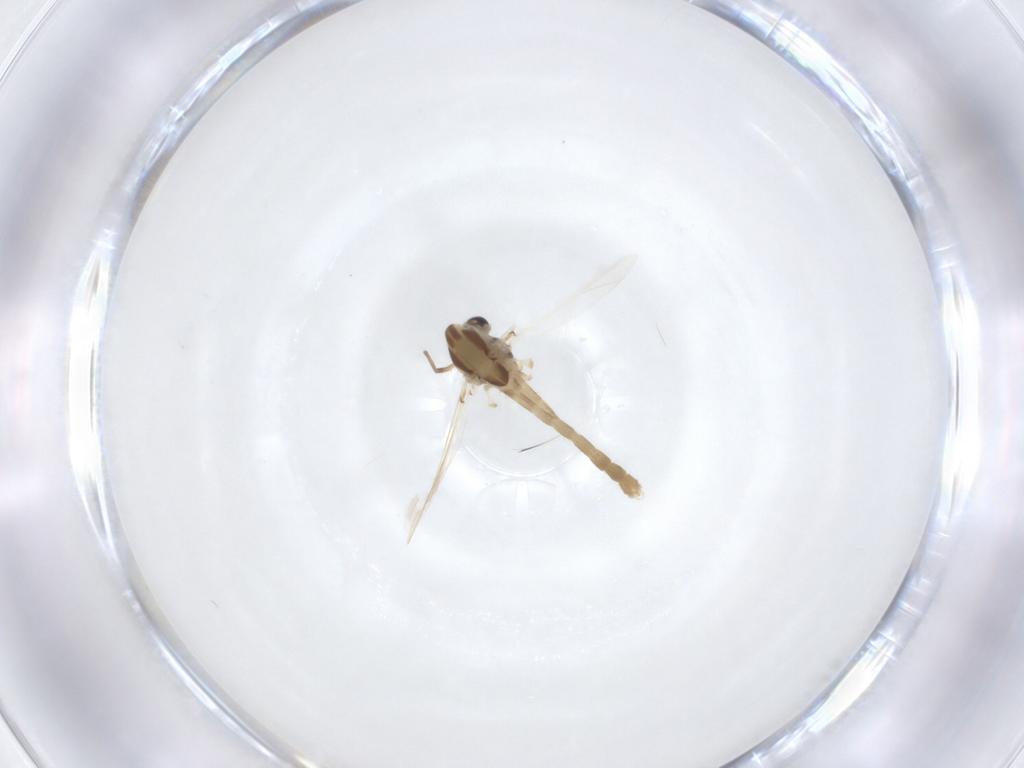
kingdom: Animalia
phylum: Arthropoda
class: Insecta
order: Diptera
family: Chironomidae
